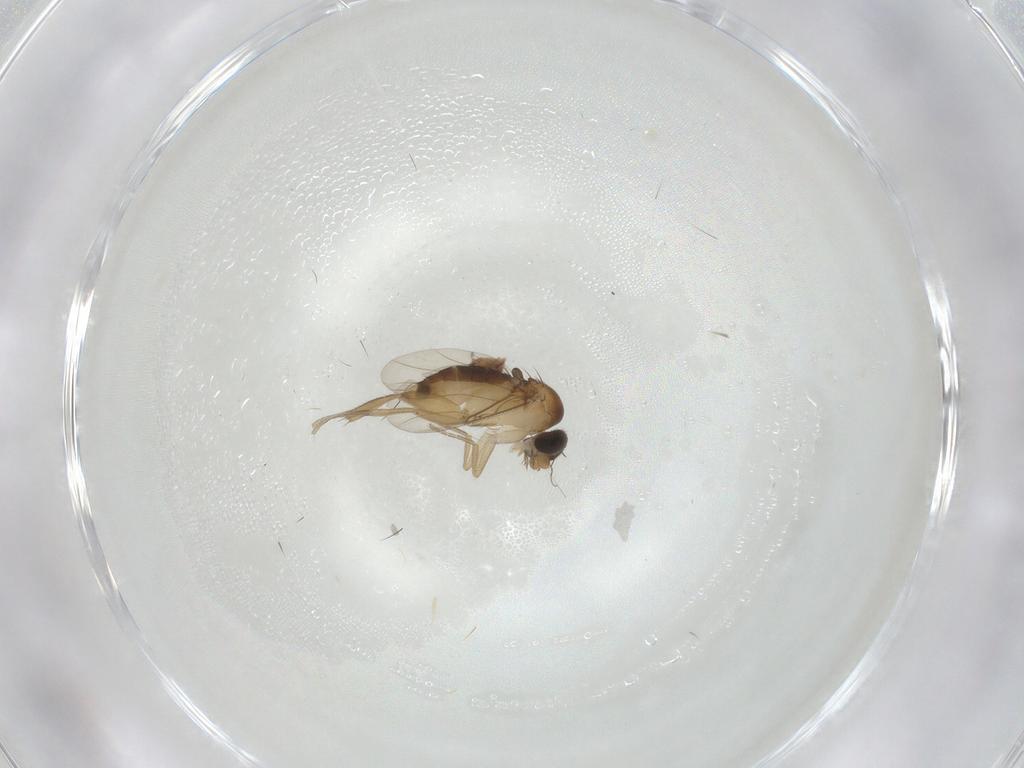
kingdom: Animalia
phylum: Arthropoda
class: Insecta
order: Diptera
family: Phoridae
